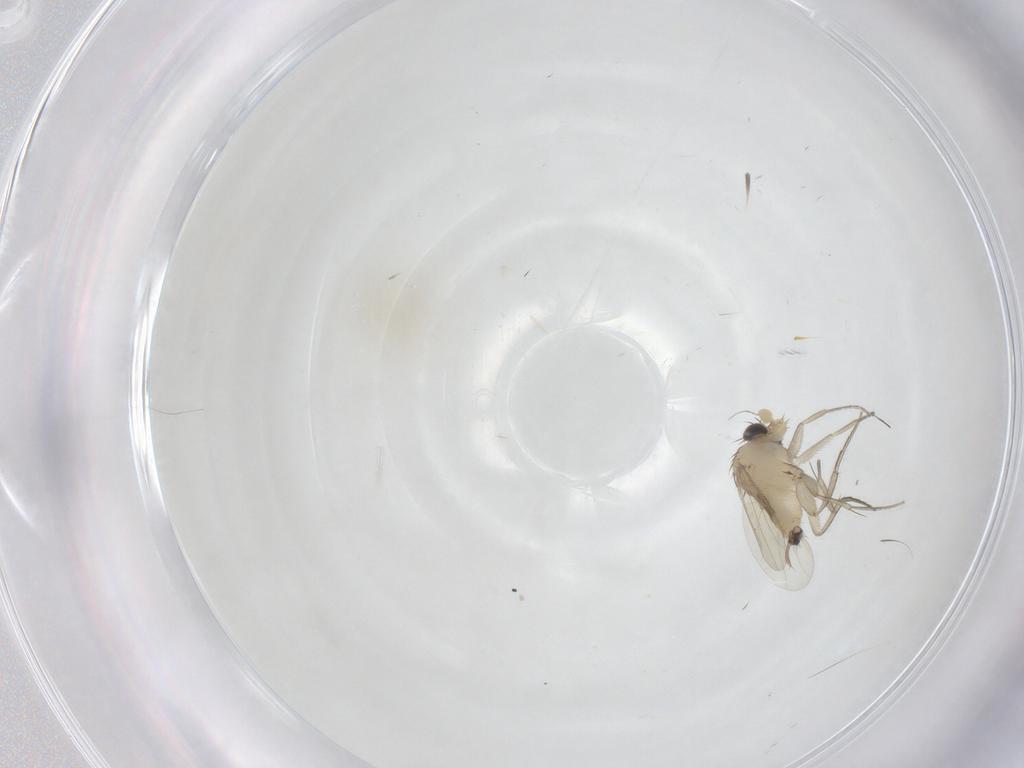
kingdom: Animalia
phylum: Arthropoda
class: Insecta
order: Diptera
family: Phoridae
